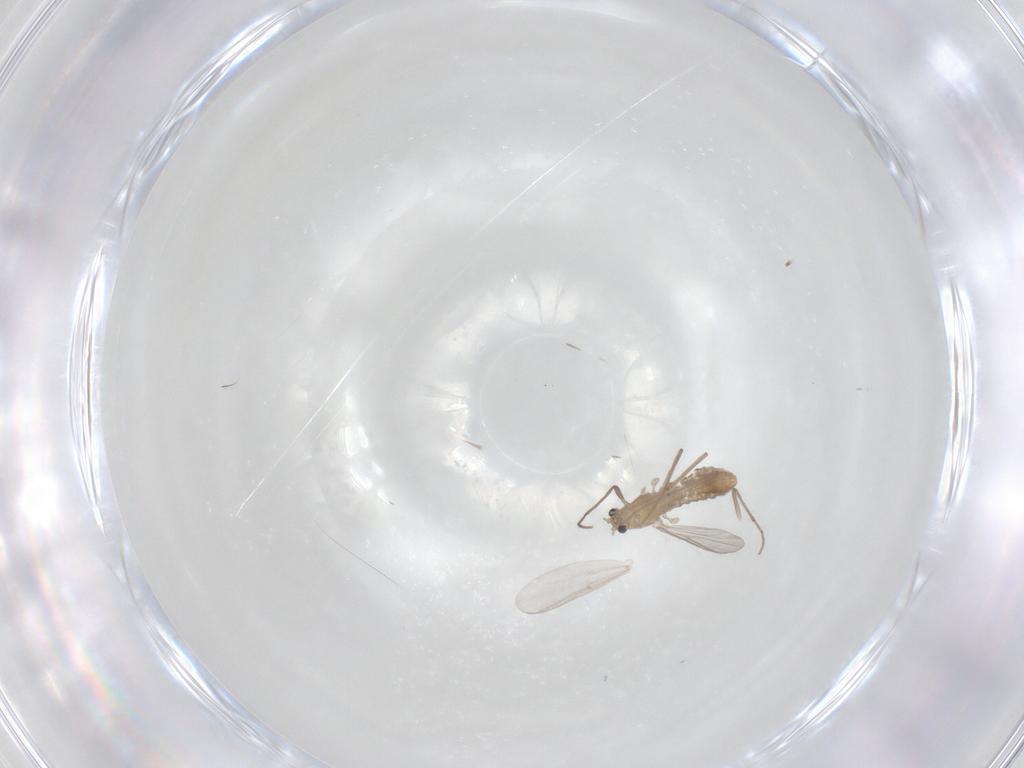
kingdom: Animalia
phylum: Arthropoda
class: Insecta
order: Diptera
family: Chironomidae
